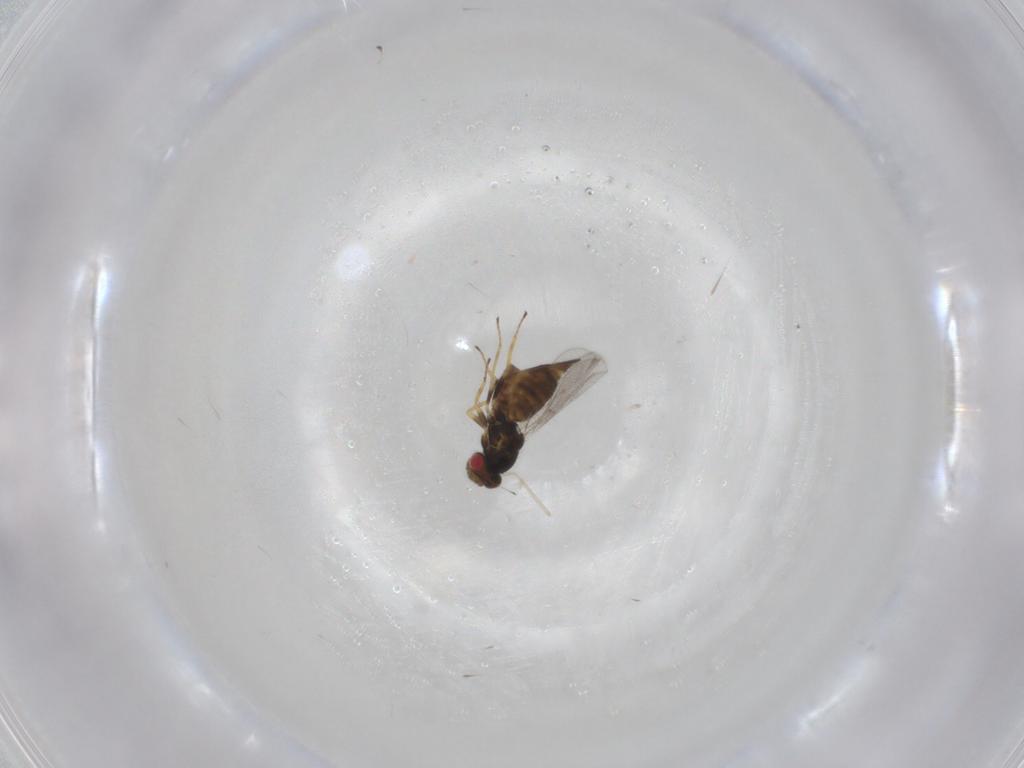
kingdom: Animalia
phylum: Arthropoda
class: Insecta
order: Hymenoptera
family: Eulophidae
